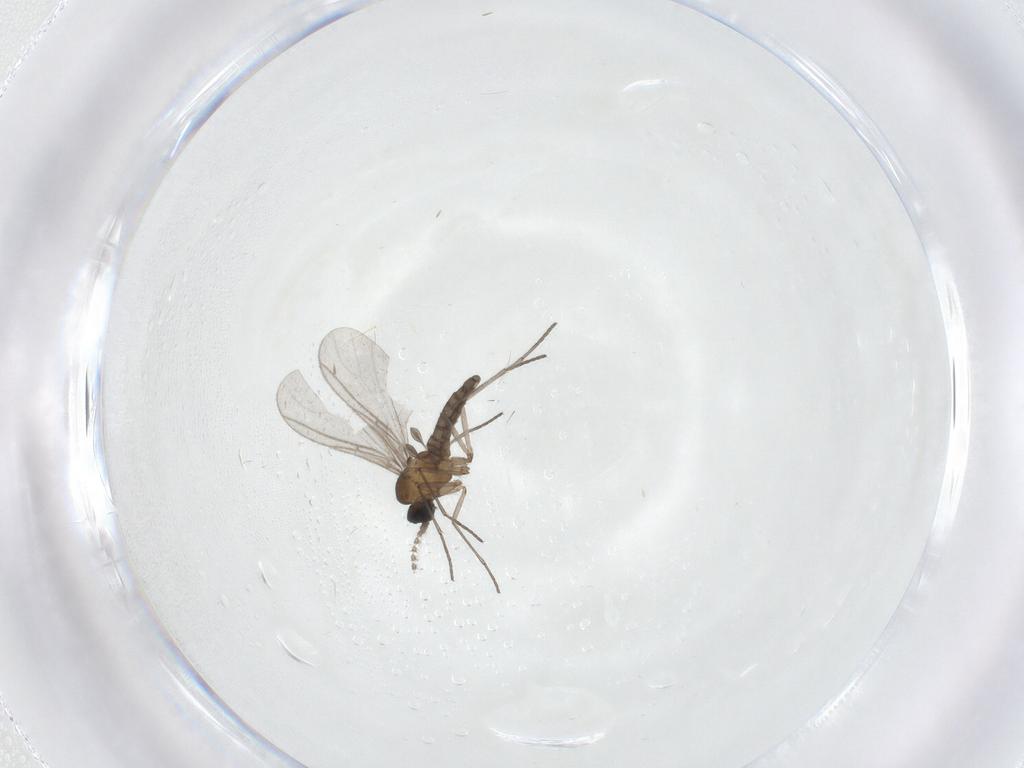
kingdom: Animalia
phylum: Arthropoda
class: Insecta
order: Diptera
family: Sciaridae
